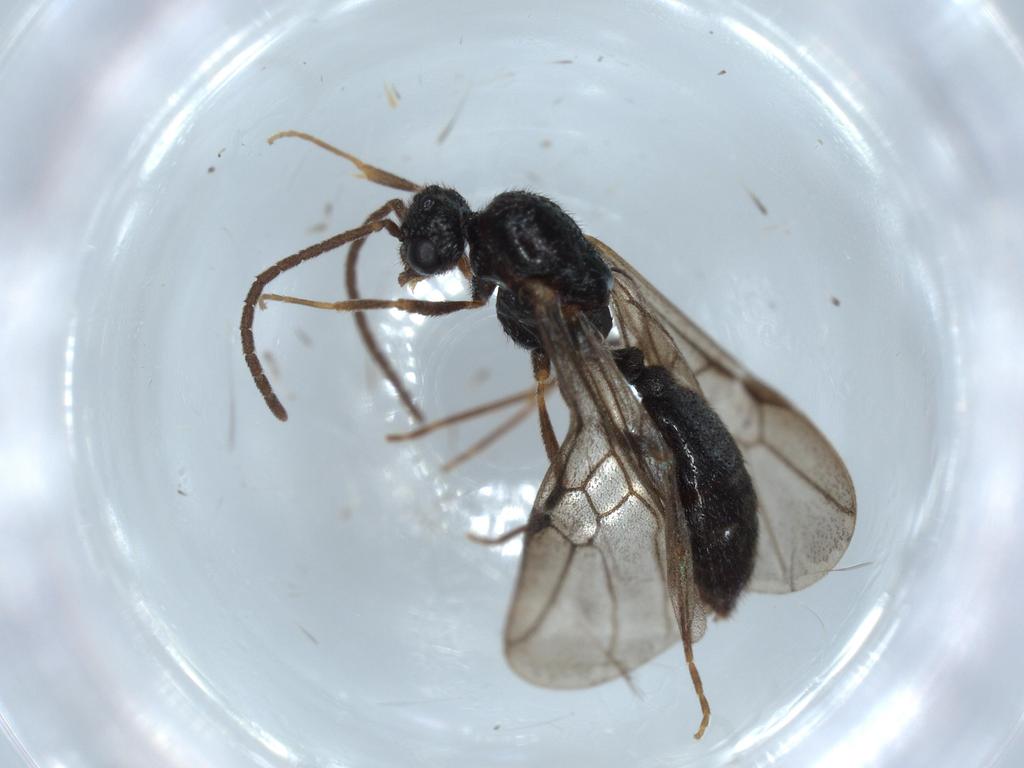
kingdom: Animalia
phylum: Arthropoda
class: Insecta
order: Hymenoptera
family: Formicidae
